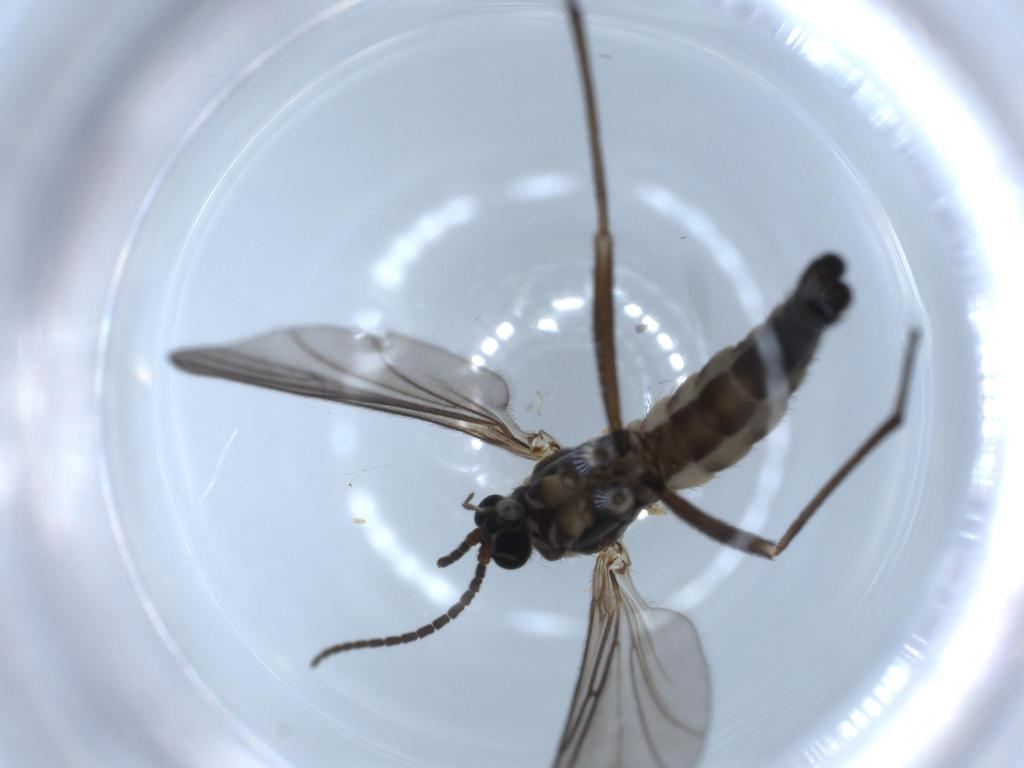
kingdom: Animalia
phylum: Arthropoda
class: Insecta
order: Diptera
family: Sciaridae
